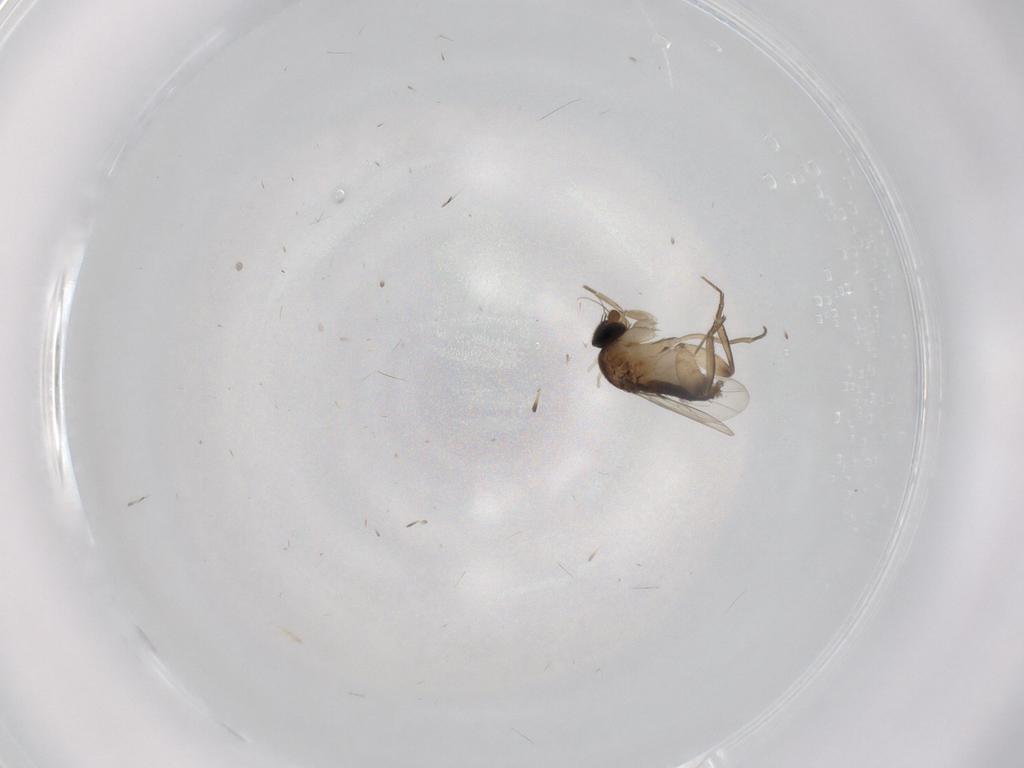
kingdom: Animalia
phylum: Arthropoda
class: Insecta
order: Diptera
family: Phoridae
